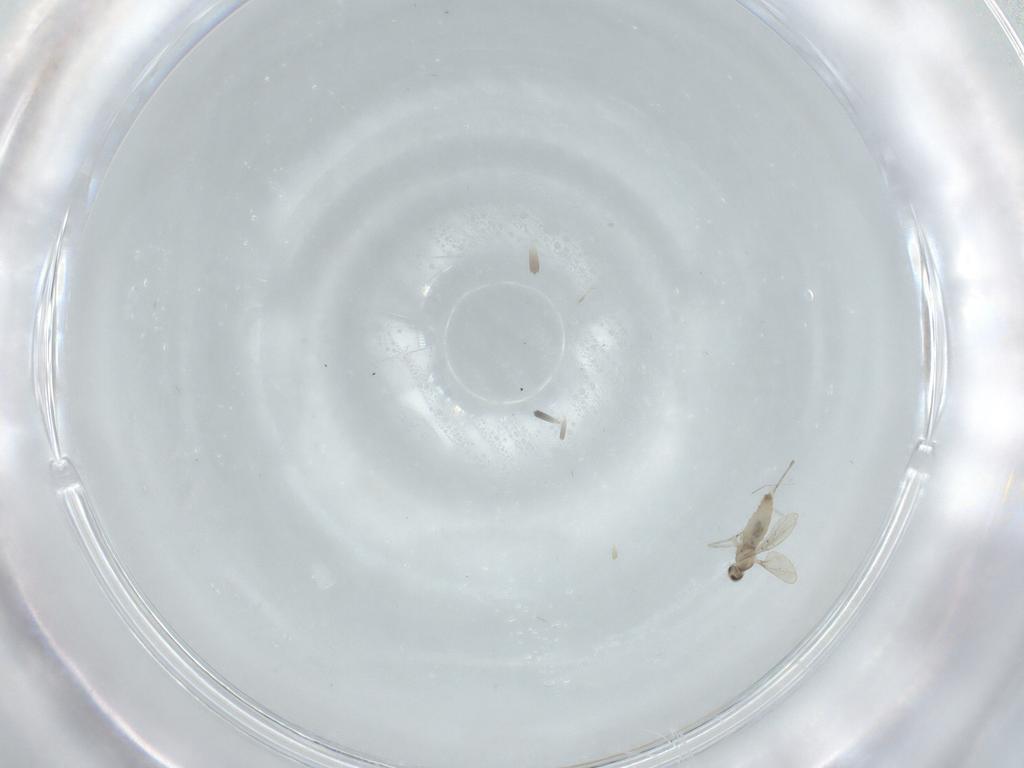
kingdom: Animalia
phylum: Arthropoda
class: Insecta
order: Diptera
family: Cecidomyiidae
